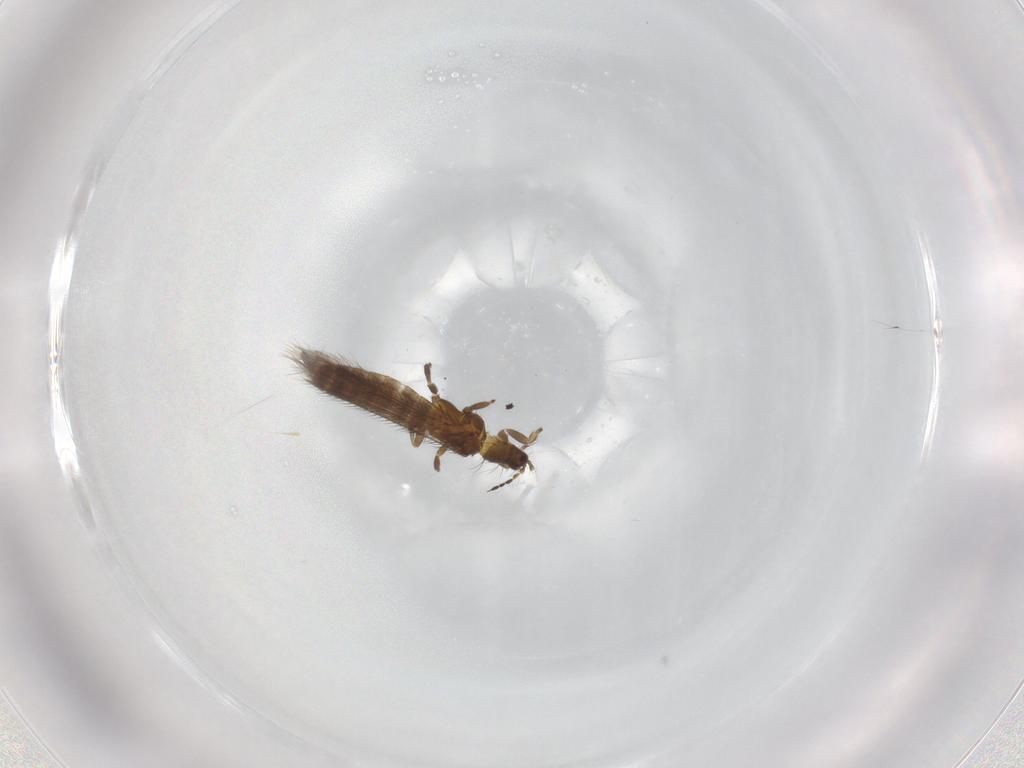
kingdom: Animalia
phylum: Arthropoda
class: Insecta
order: Thysanoptera
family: Thripidae
